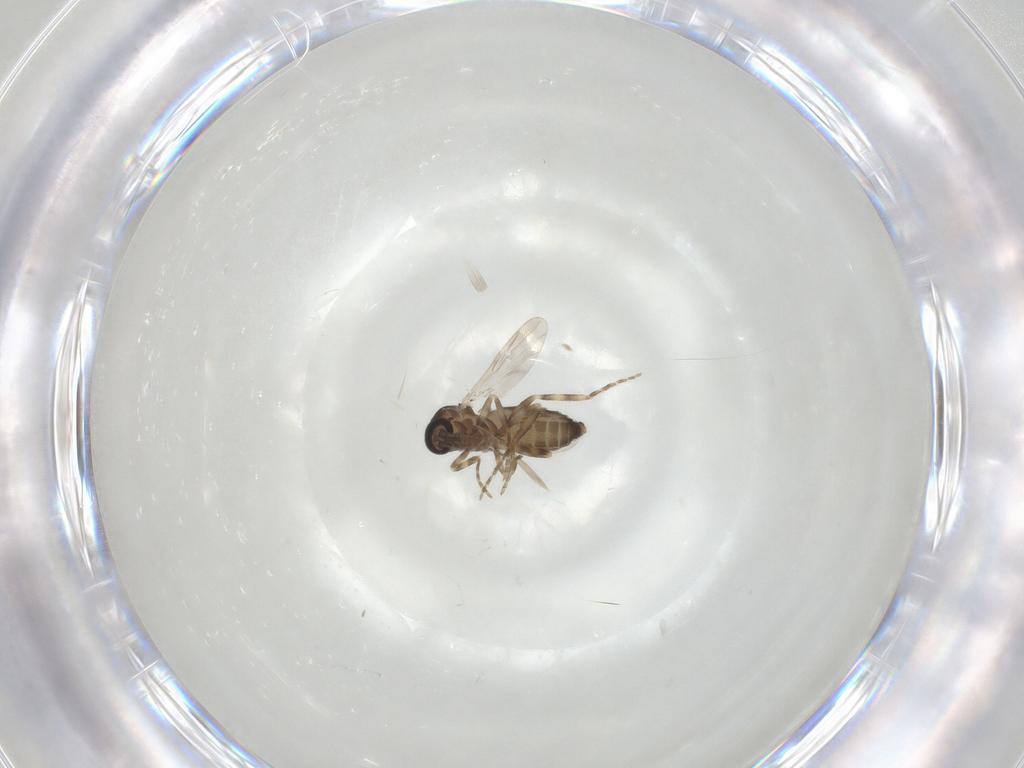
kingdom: Animalia
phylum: Arthropoda
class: Insecta
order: Diptera
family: Ceratopogonidae
